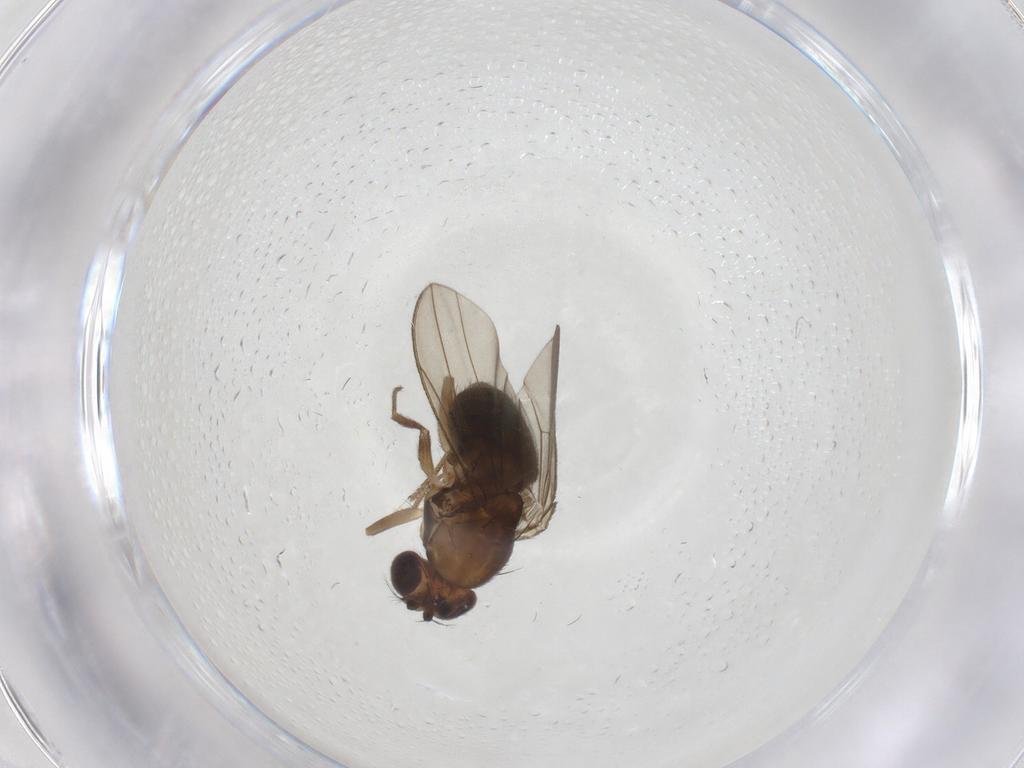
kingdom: Animalia
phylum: Arthropoda
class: Insecta
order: Diptera
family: Drosophilidae
